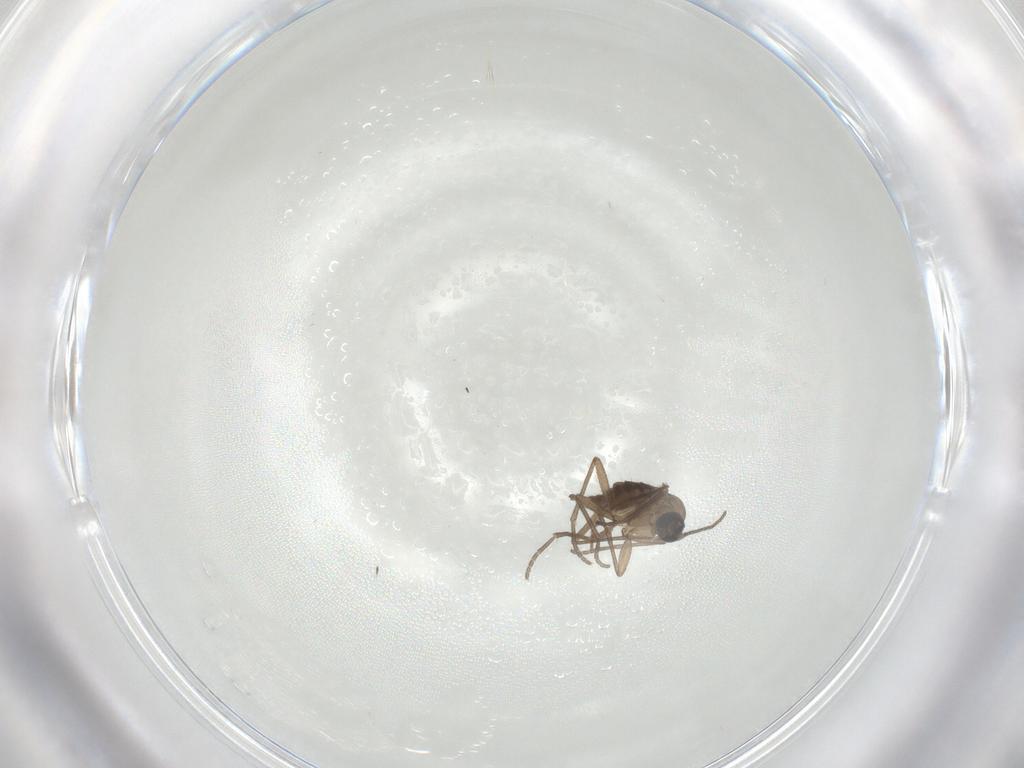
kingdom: Animalia
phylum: Arthropoda
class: Insecta
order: Diptera
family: Sciaridae
